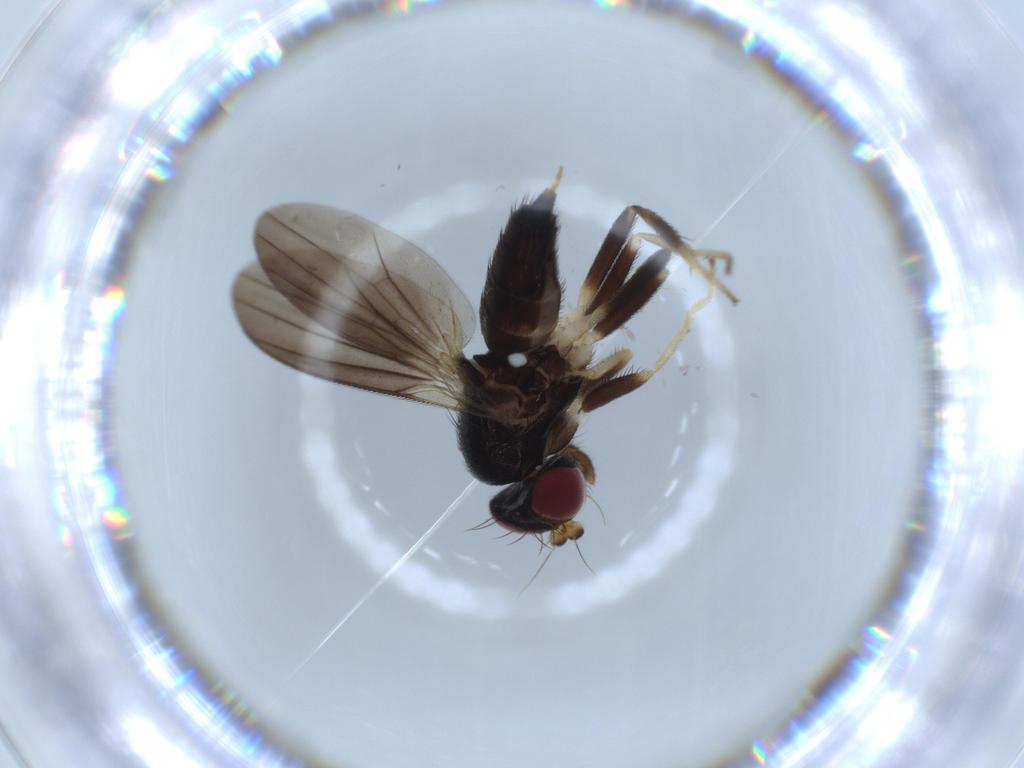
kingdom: Animalia
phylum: Arthropoda
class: Insecta
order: Diptera
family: Clusiidae
